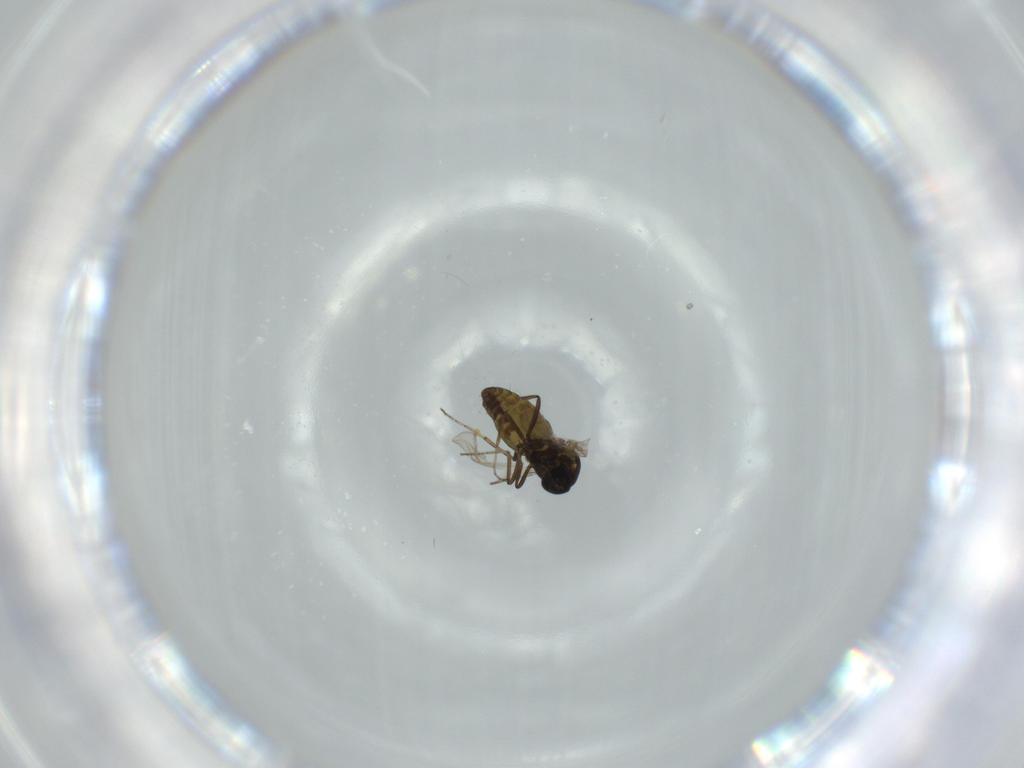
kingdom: Animalia
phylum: Arthropoda
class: Insecta
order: Diptera
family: Chironomidae
